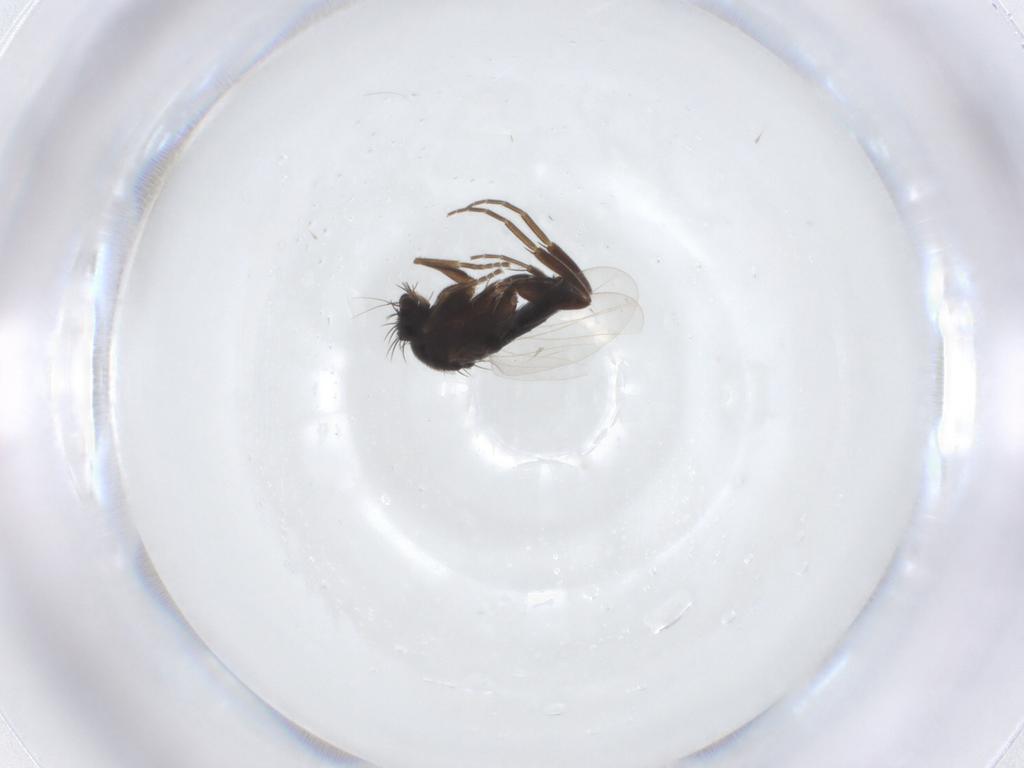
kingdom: Animalia
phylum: Arthropoda
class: Insecta
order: Diptera
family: Phoridae
